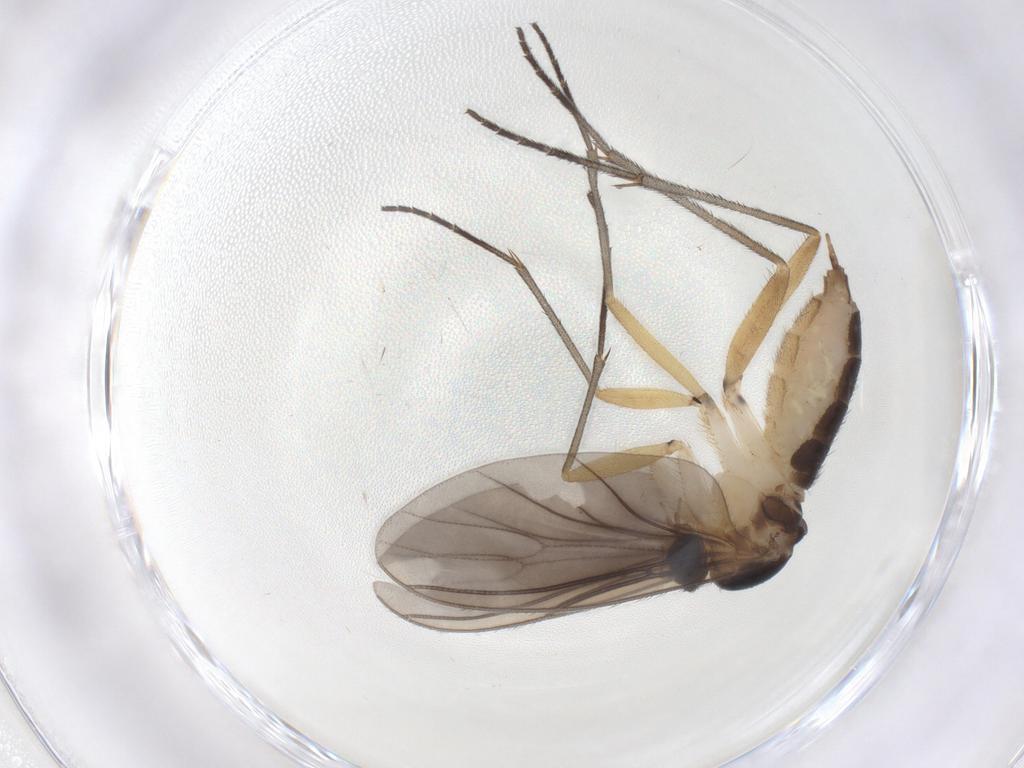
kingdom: Animalia
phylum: Arthropoda
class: Insecta
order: Diptera
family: Sciaridae
